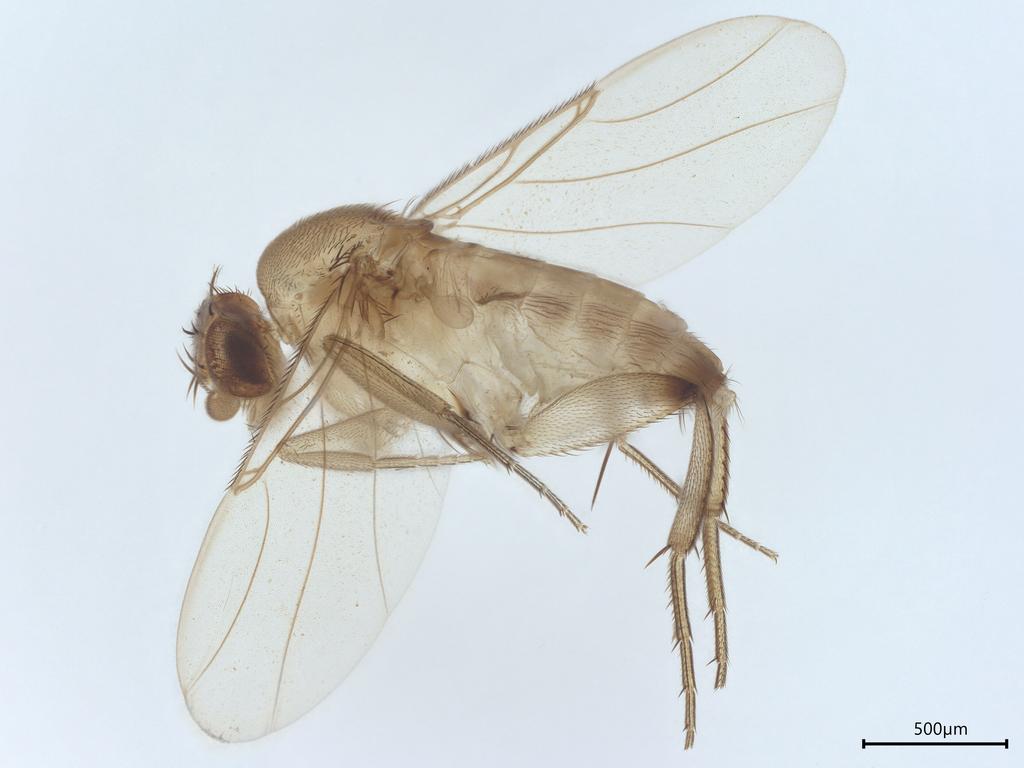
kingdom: Animalia
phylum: Arthropoda
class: Insecta
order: Diptera
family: Phoridae
